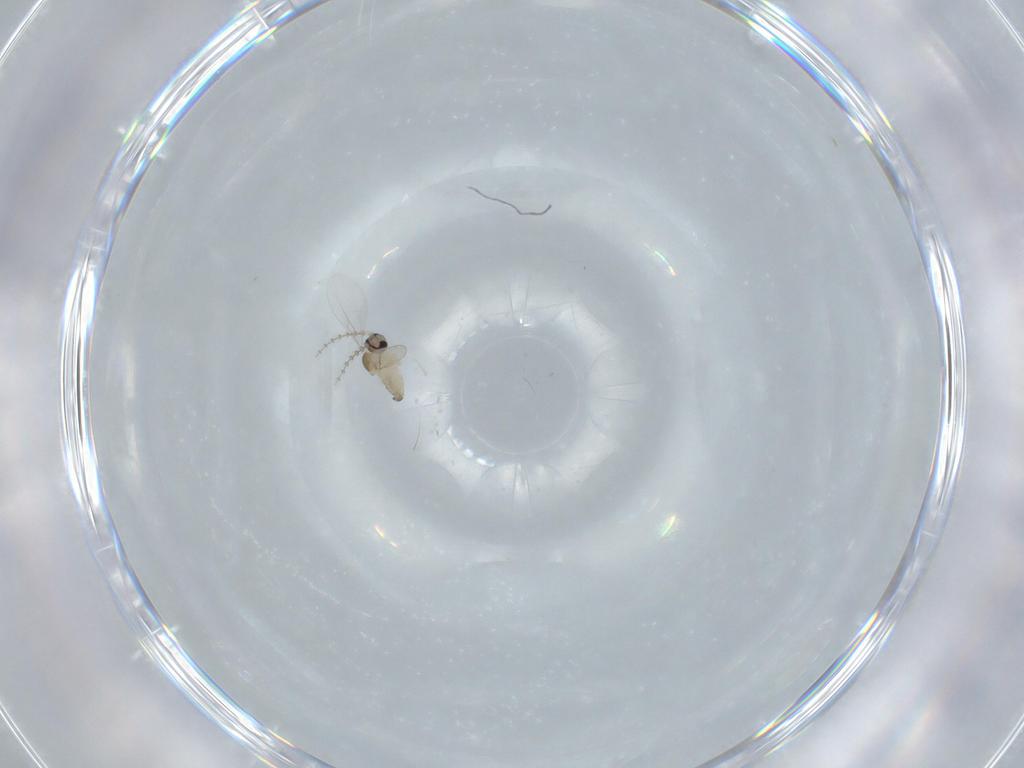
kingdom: Animalia
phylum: Arthropoda
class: Insecta
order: Diptera
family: Cecidomyiidae
